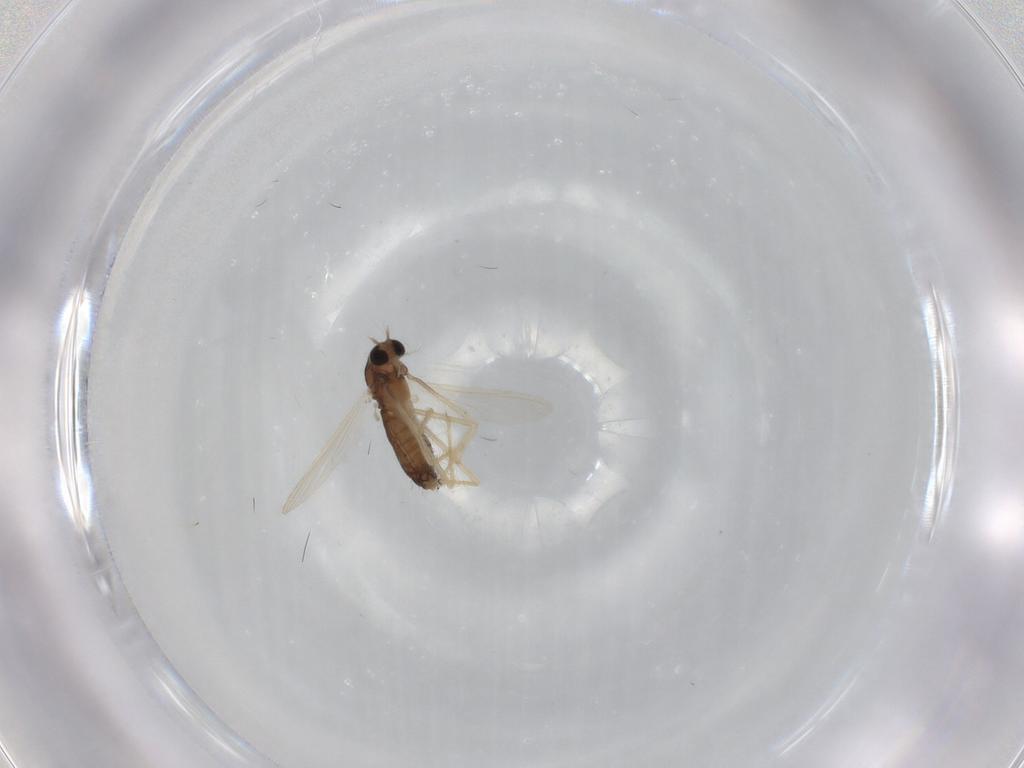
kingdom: Animalia
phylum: Arthropoda
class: Insecta
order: Diptera
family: Chironomidae
